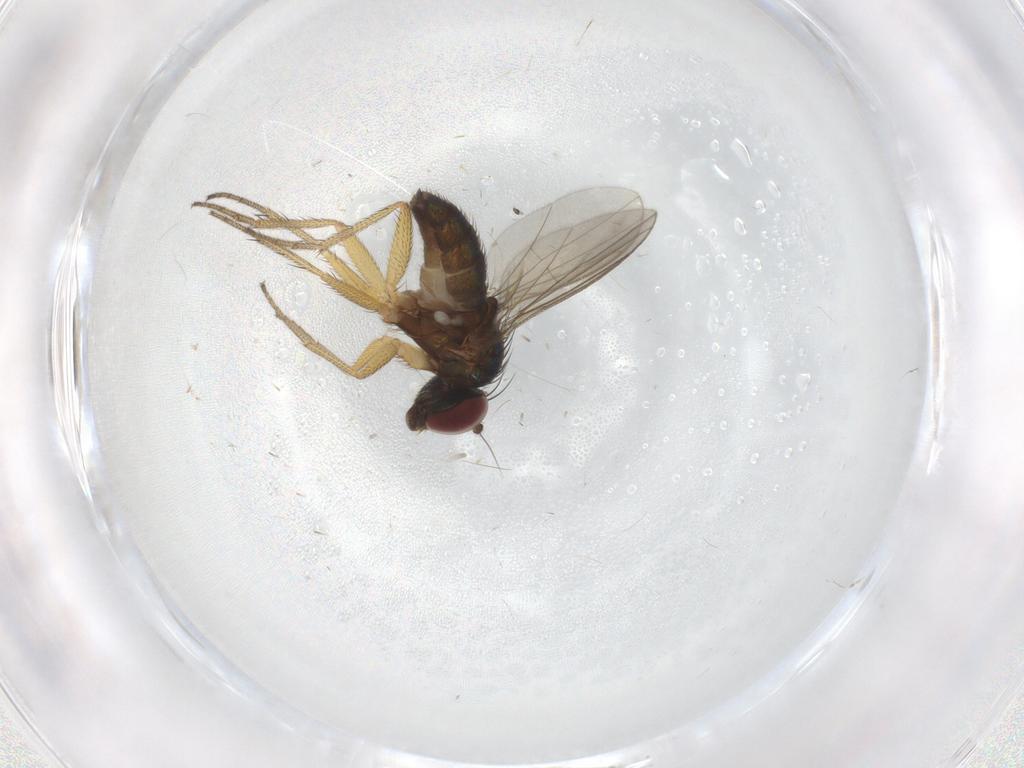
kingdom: Animalia
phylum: Arthropoda
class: Insecta
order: Diptera
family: Dolichopodidae
